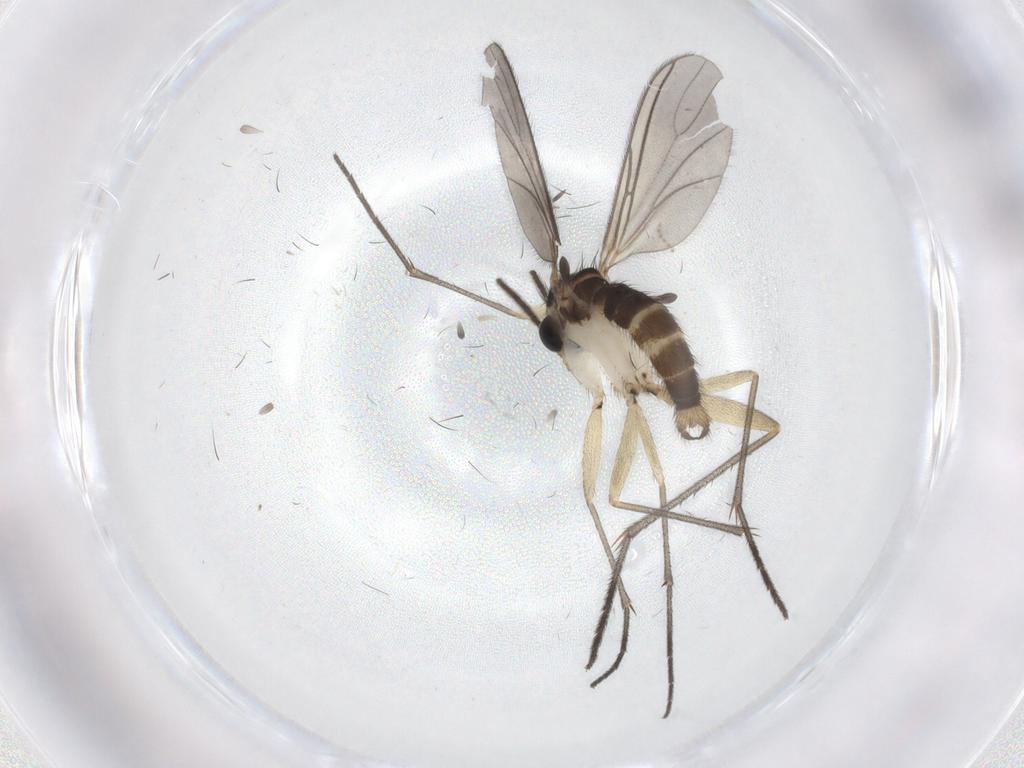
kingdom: Animalia
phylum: Arthropoda
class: Insecta
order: Diptera
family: Sciaridae
